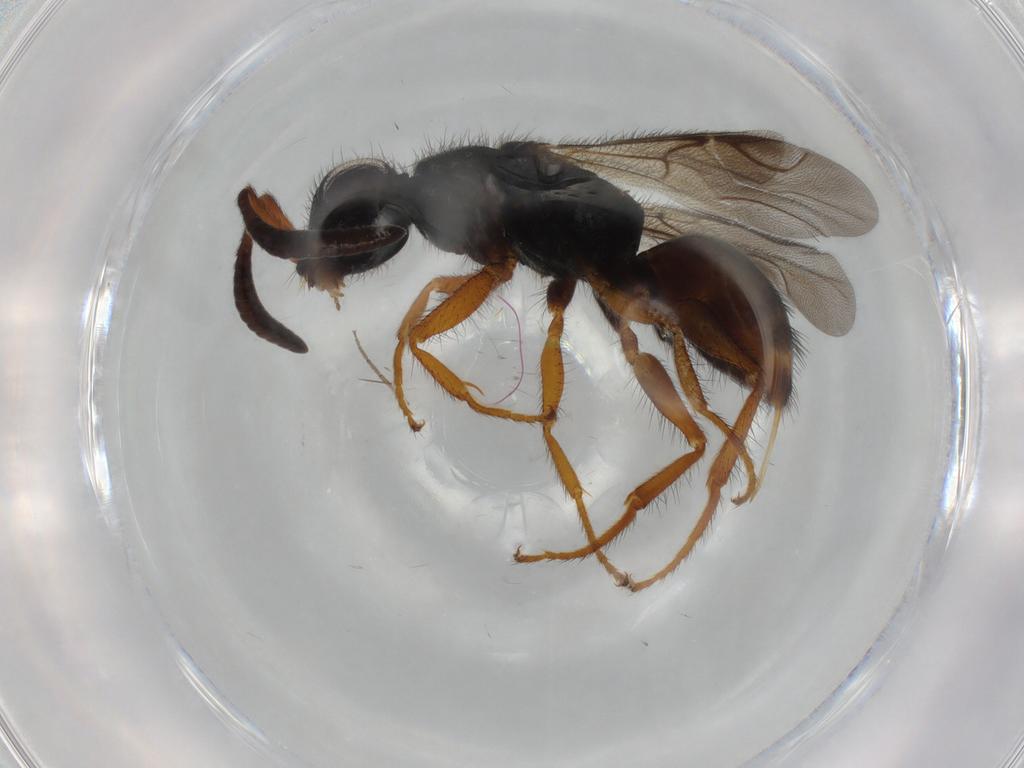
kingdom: Animalia
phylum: Arthropoda
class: Insecta
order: Hymenoptera
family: Chrysididae
